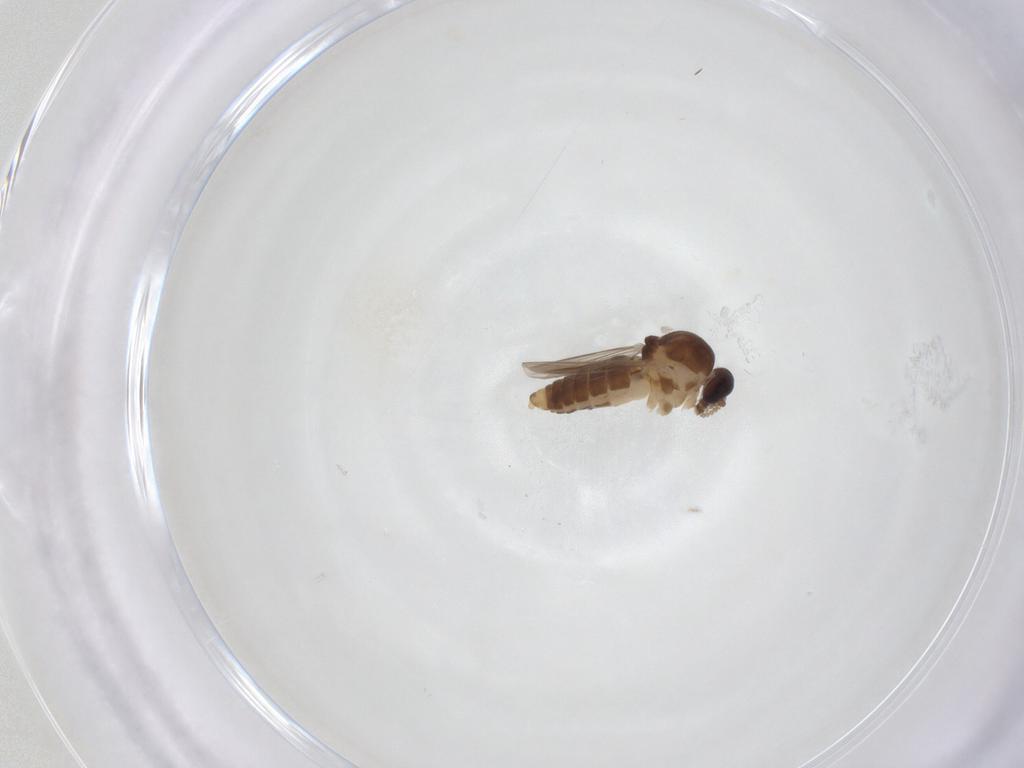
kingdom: Animalia
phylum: Arthropoda
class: Insecta
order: Diptera
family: Ceratopogonidae
